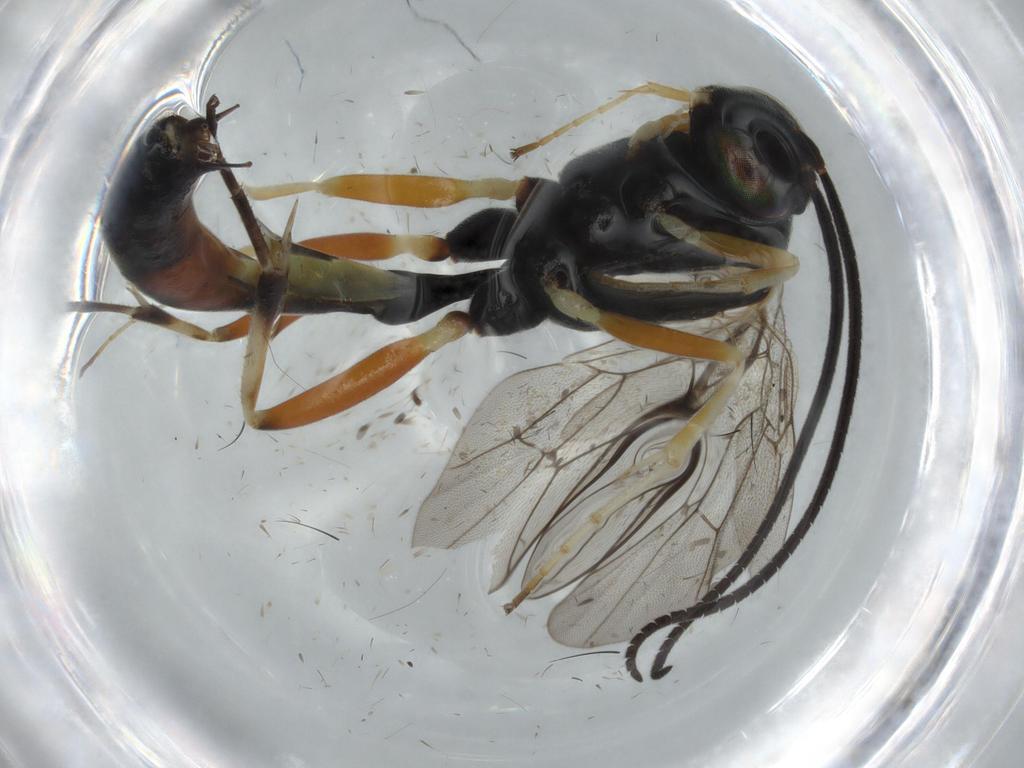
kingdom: Animalia
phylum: Arthropoda
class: Insecta
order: Hymenoptera
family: Ichneumonidae
